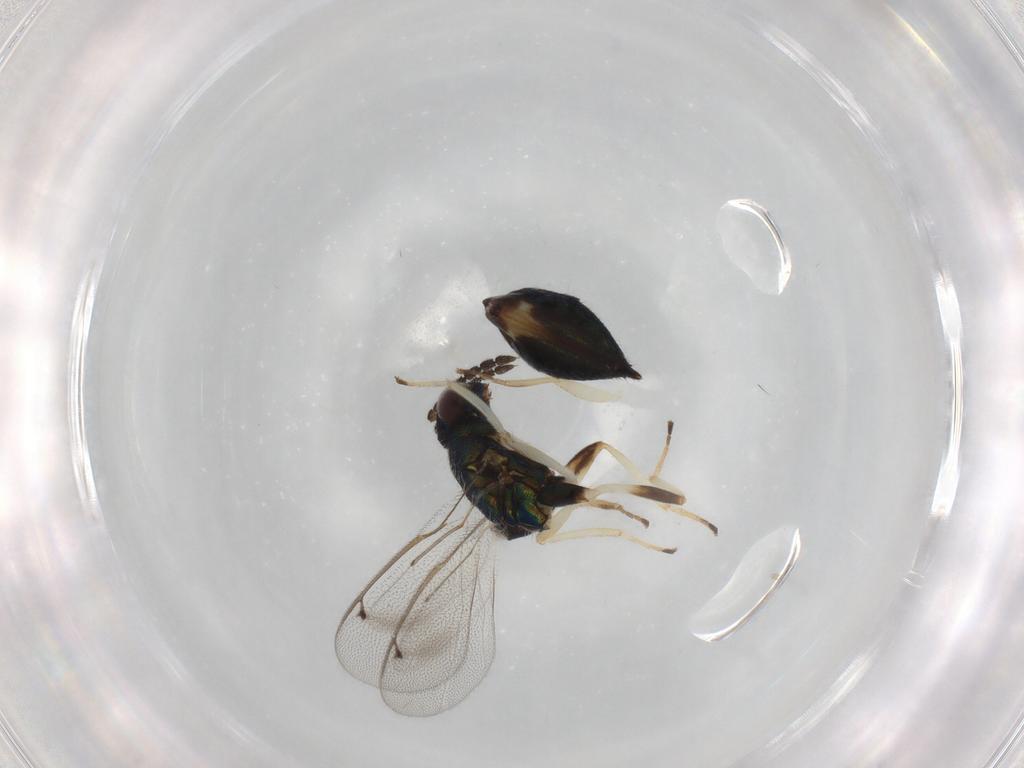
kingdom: Animalia
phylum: Arthropoda
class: Insecta
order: Hymenoptera
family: Eulophidae
